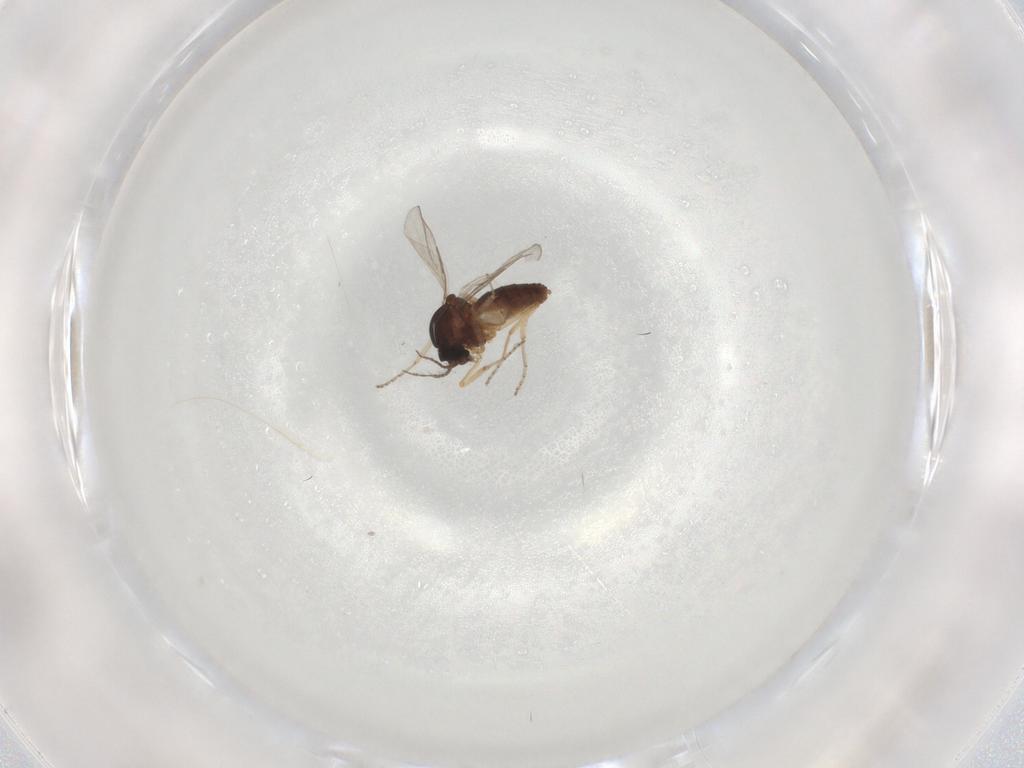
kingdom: Animalia
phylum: Arthropoda
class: Insecta
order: Diptera
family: Ceratopogonidae
